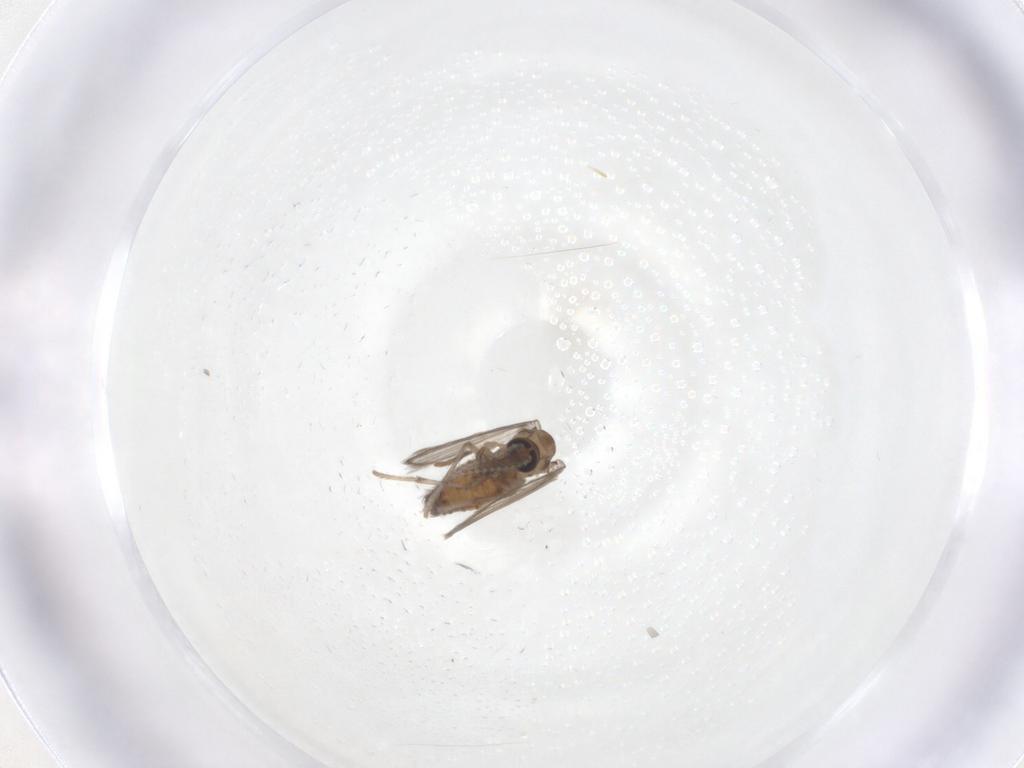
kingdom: Animalia
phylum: Arthropoda
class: Insecta
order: Diptera
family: Psychodidae
